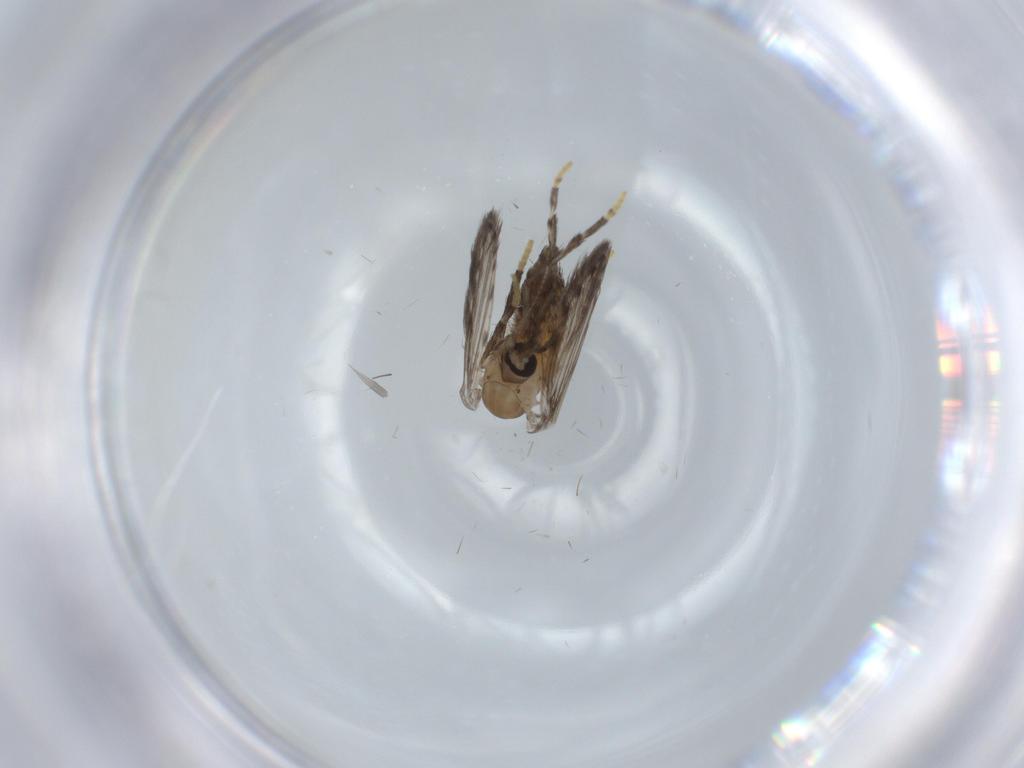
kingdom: Animalia
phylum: Arthropoda
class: Insecta
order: Diptera
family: Psychodidae
